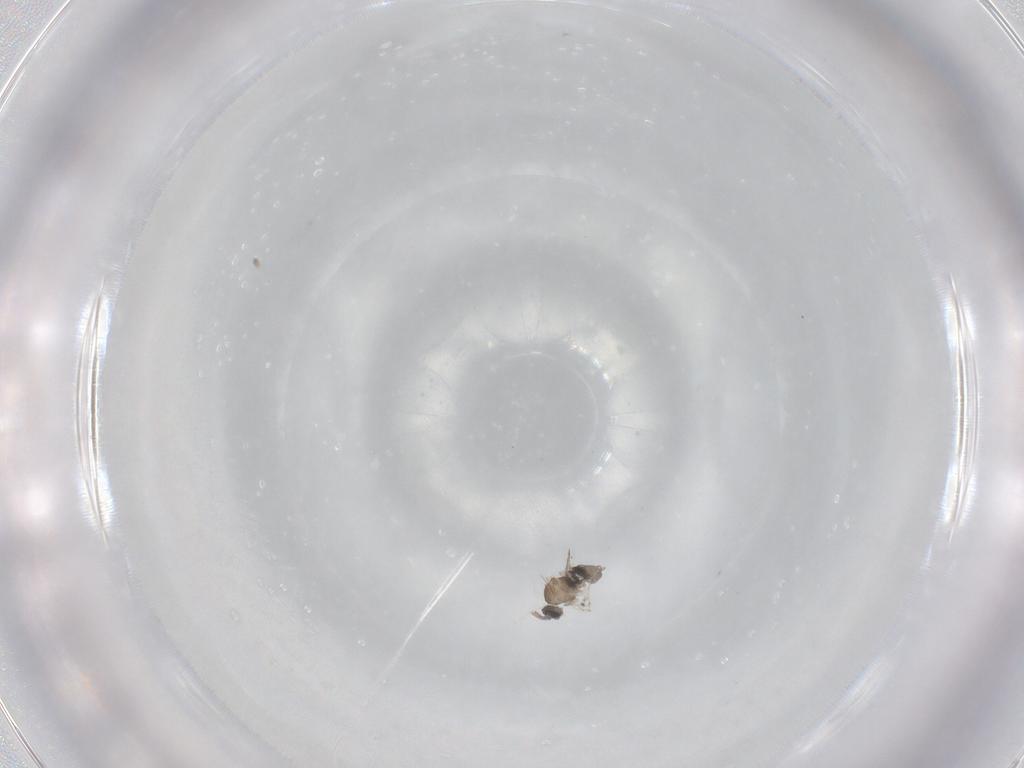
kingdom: Animalia
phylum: Arthropoda
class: Insecta
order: Diptera
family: Cecidomyiidae
